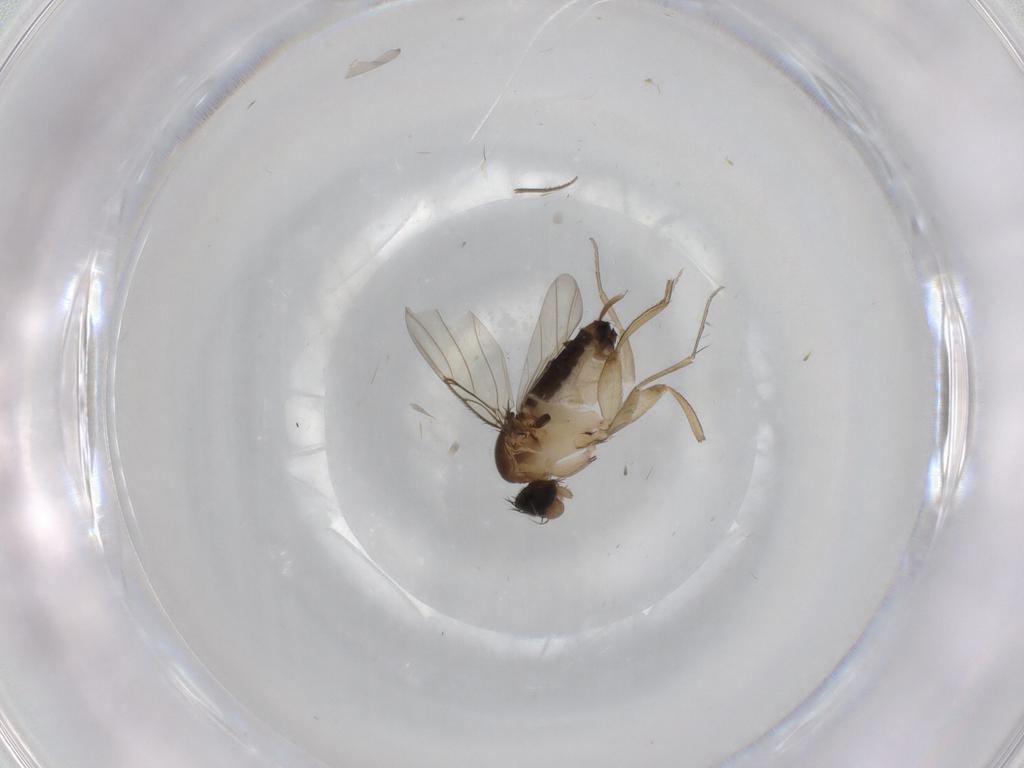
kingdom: Animalia
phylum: Arthropoda
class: Insecta
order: Diptera
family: Phoridae
